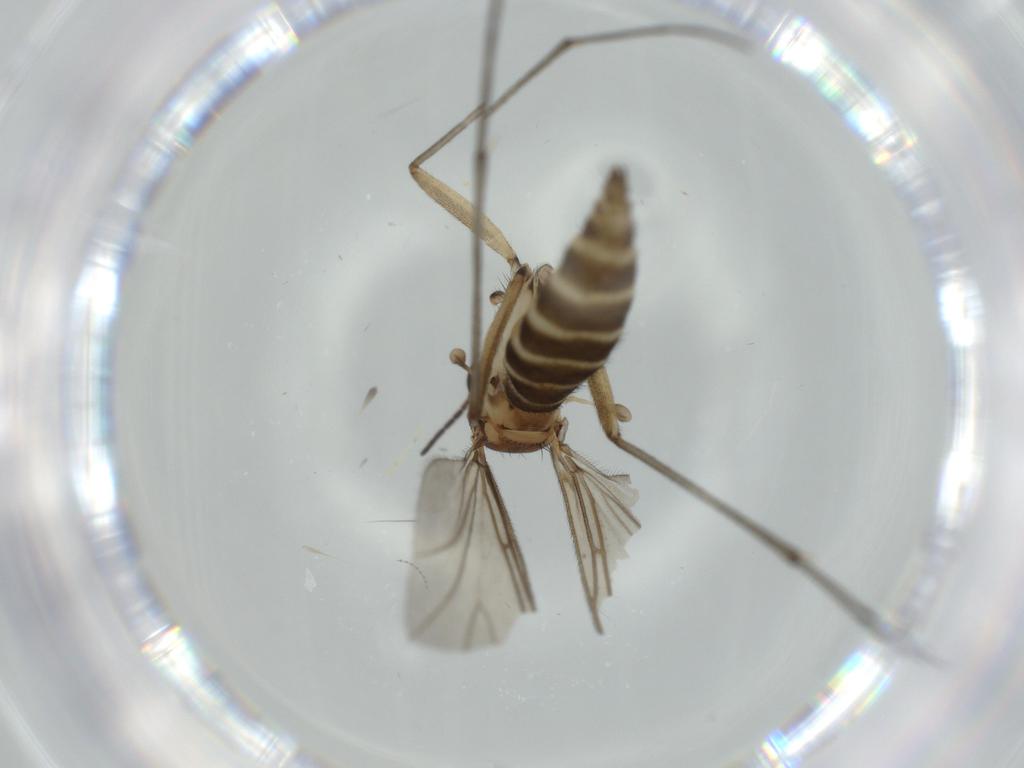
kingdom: Animalia
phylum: Arthropoda
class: Insecta
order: Diptera
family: Sciaridae
